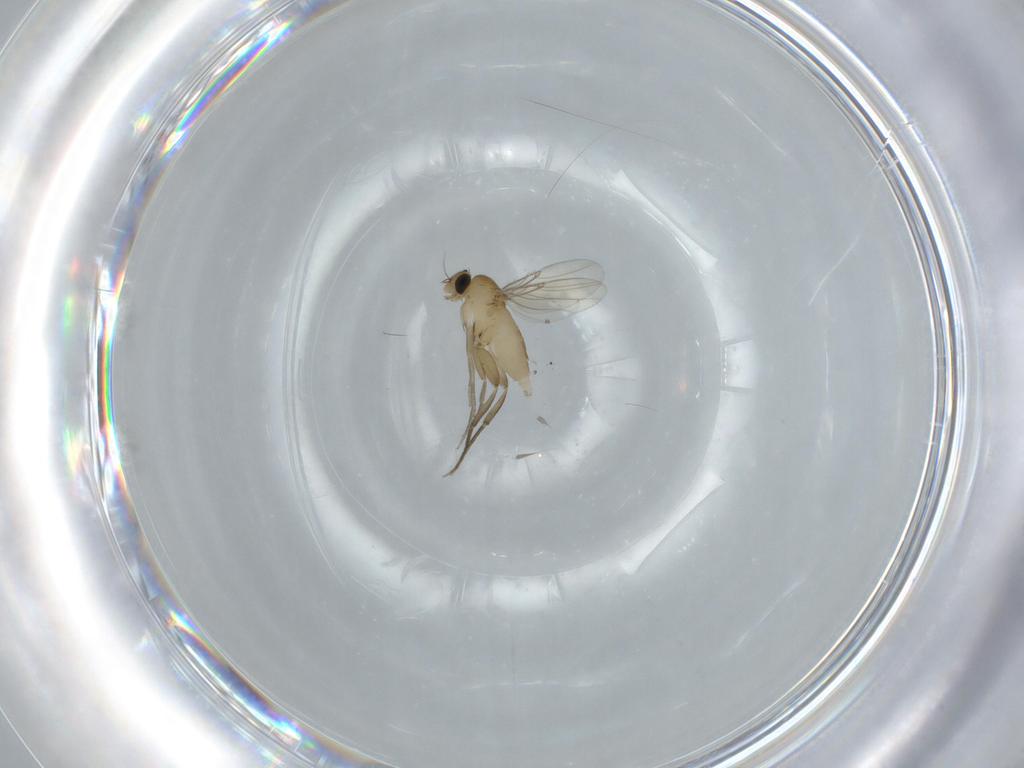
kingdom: Animalia
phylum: Arthropoda
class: Insecta
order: Diptera
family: Phoridae
